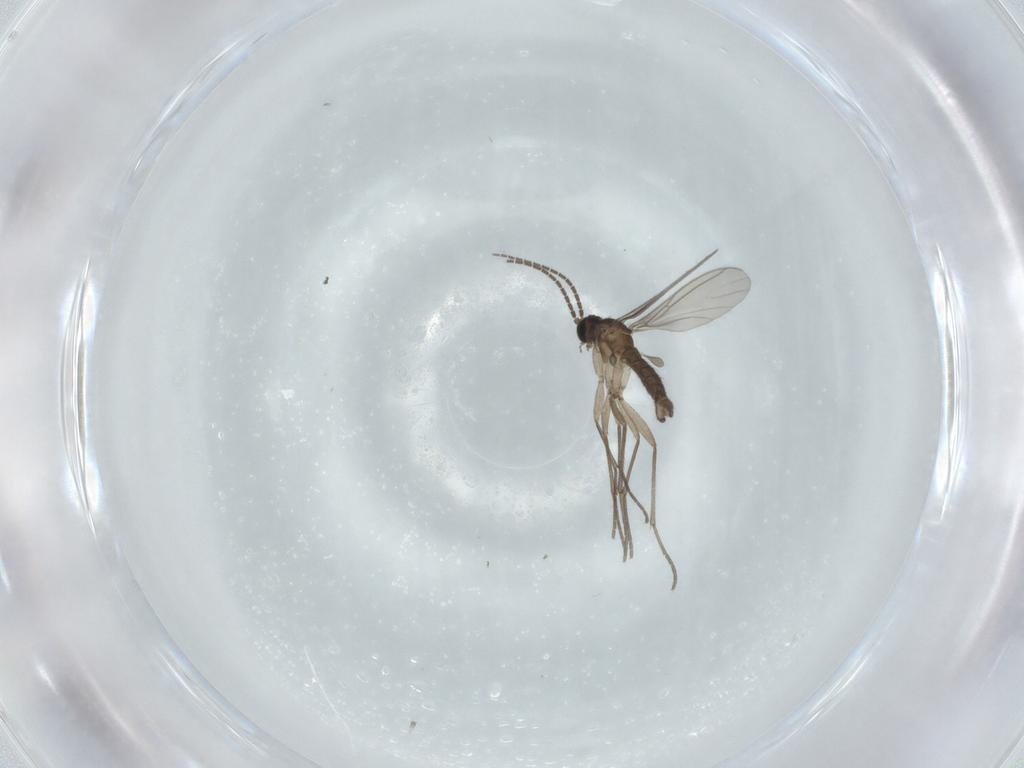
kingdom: Animalia
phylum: Arthropoda
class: Insecta
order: Diptera
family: Sciaridae
